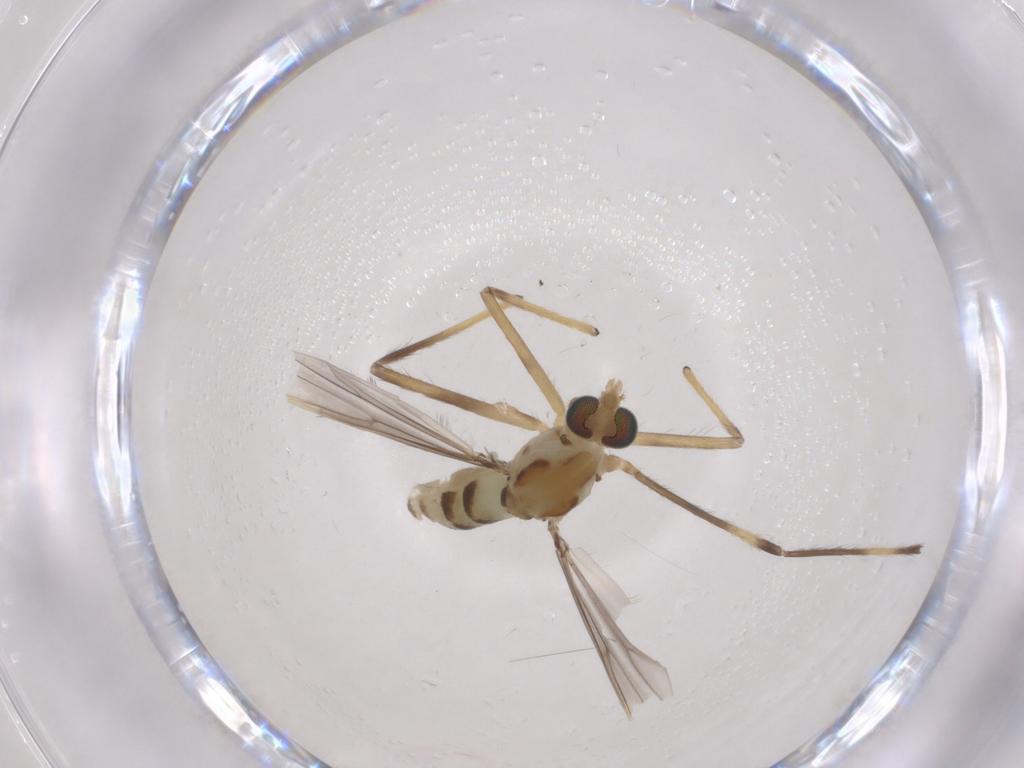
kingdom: Animalia
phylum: Arthropoda
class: Insecta
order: Diptera
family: Chironomidae
